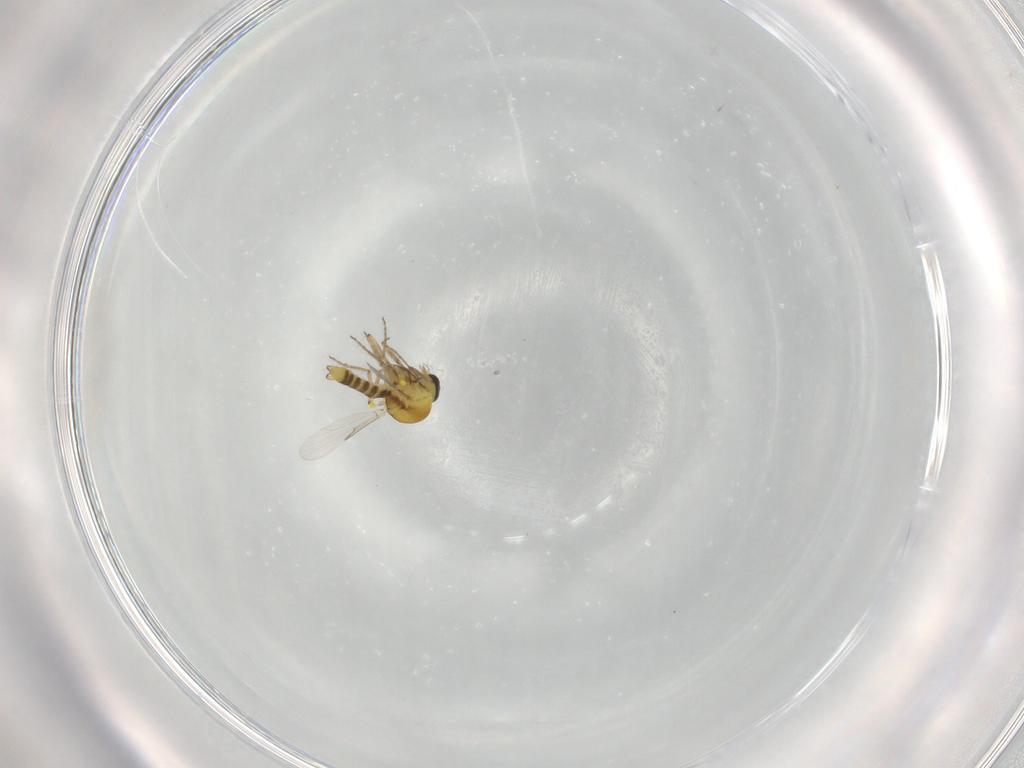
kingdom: Animalia
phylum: Arthropoda
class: Insecta
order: Diptera
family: Ceratopogonidae
